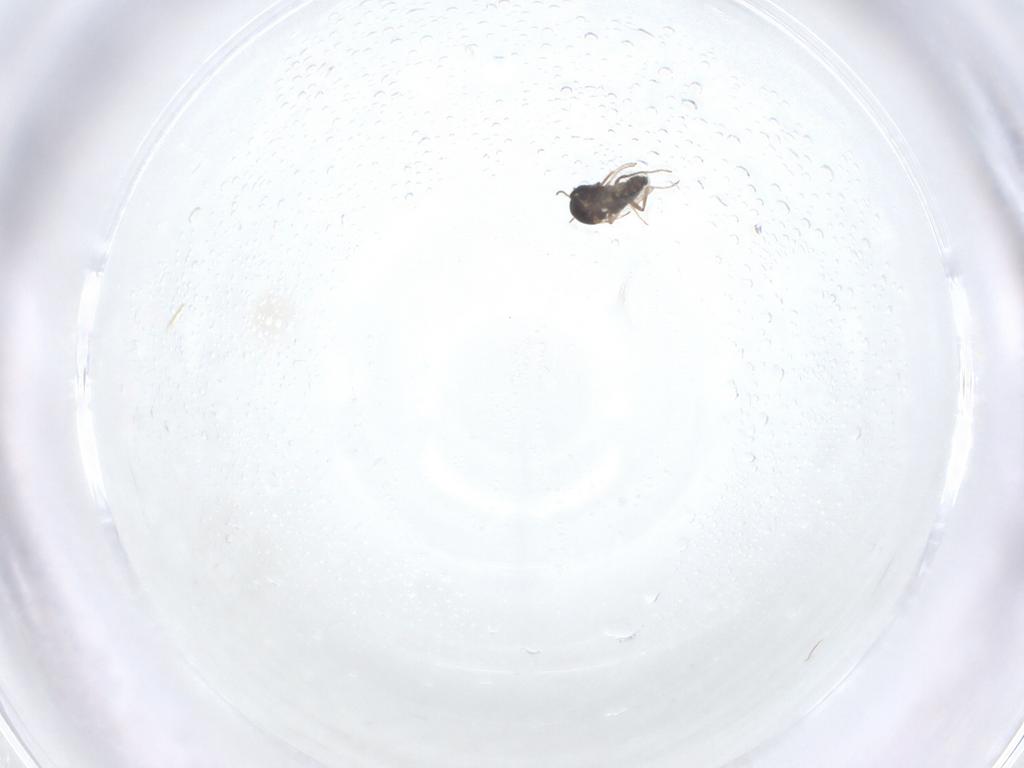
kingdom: Animalia
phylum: Arthropoda
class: Insecta
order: Diptera
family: Ceratopogonidae
